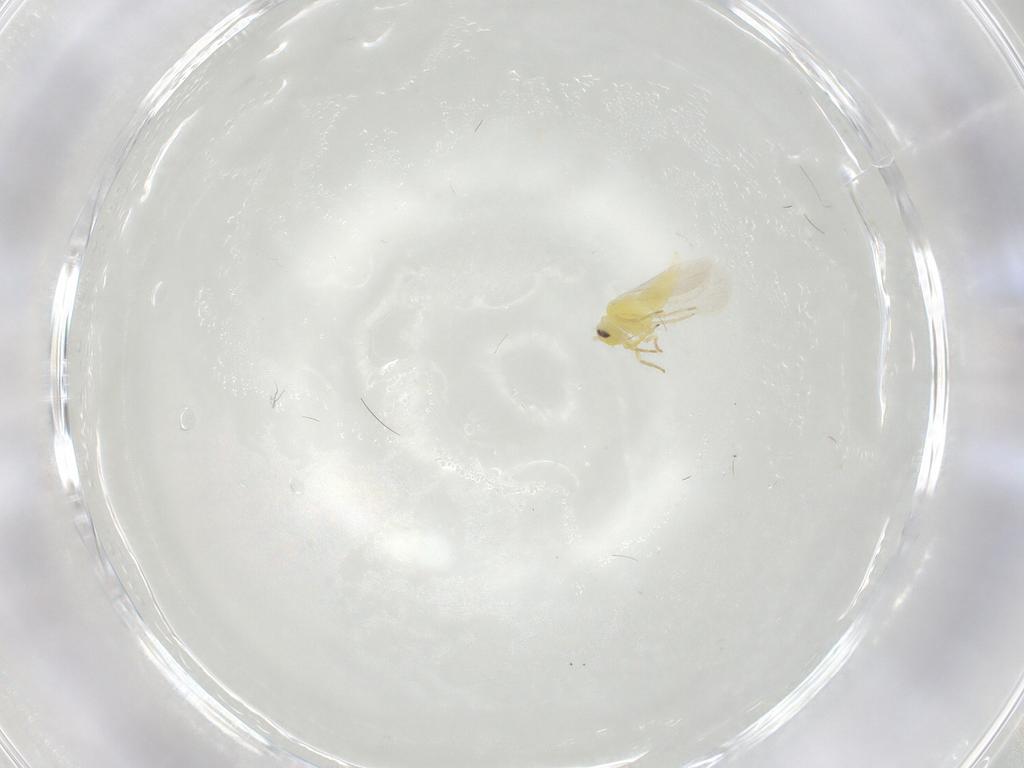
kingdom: Animalia
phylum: Arthropoda
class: Insecta
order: Hemiptera
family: Aleyrodidae
